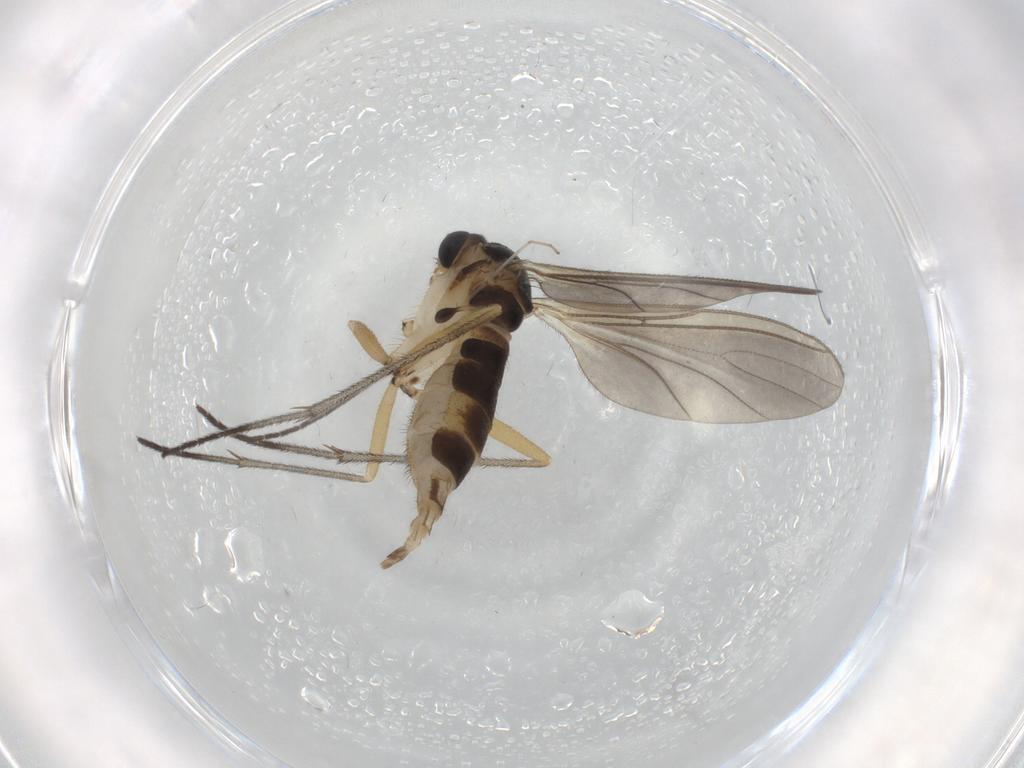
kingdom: Animalia
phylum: Arthropoda
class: Insecta
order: Diptera
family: Sciaridae
